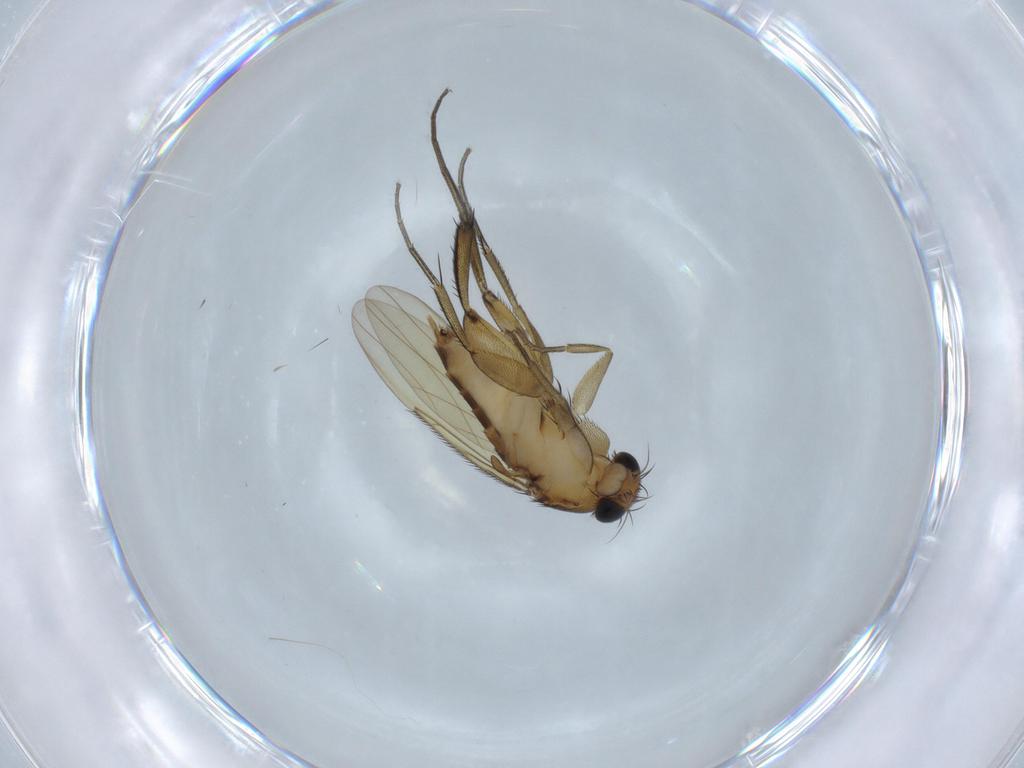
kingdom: Animalia
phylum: Arthropoda
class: Insecta
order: Diptera
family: Phoridae
